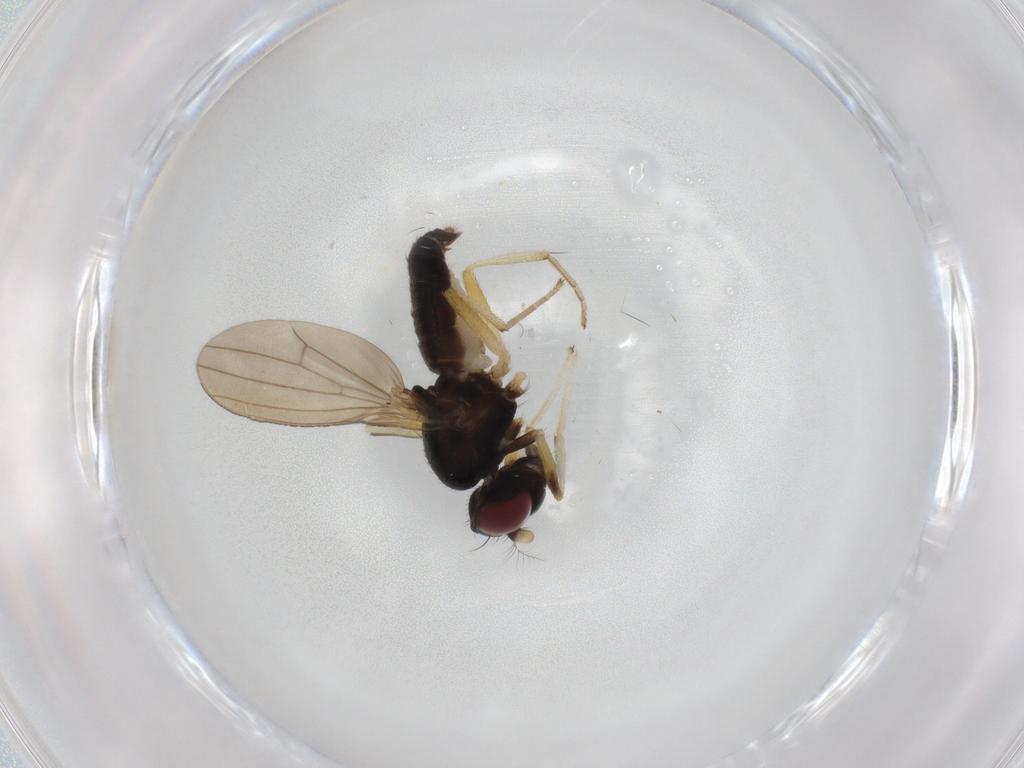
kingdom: Animalia
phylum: Arthropoda
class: Insecta
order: Diptera
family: Lauxaniidae
